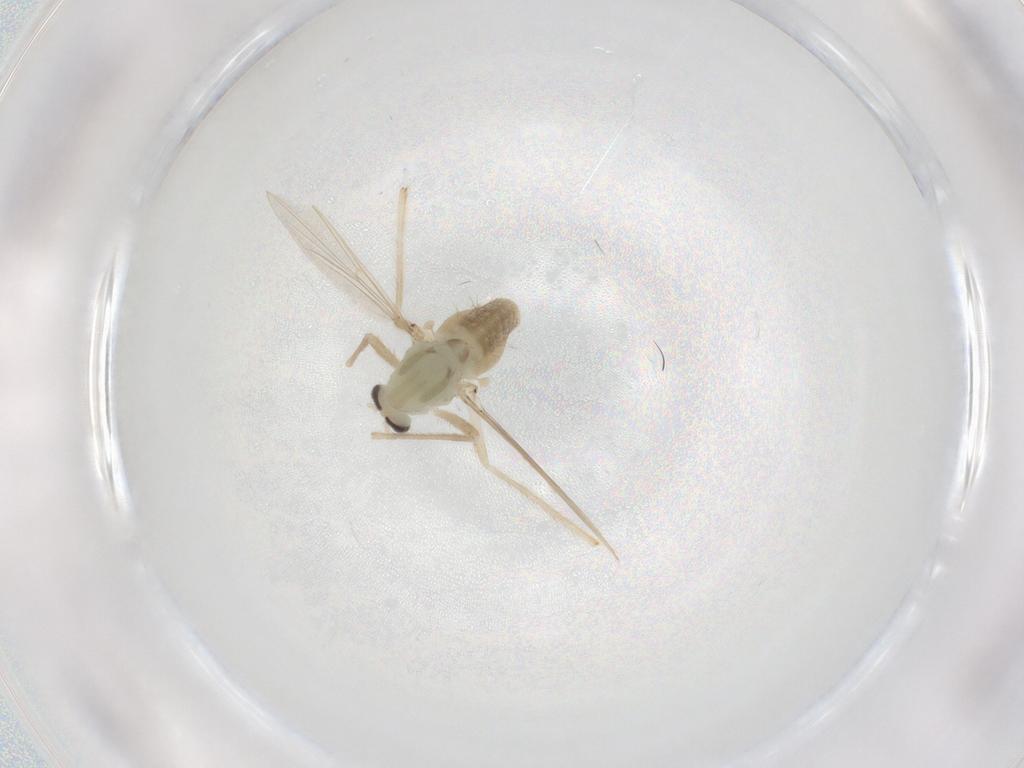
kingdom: Animalia
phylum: Arthropoda
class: Insecta
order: Diptera
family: Chironomidae
